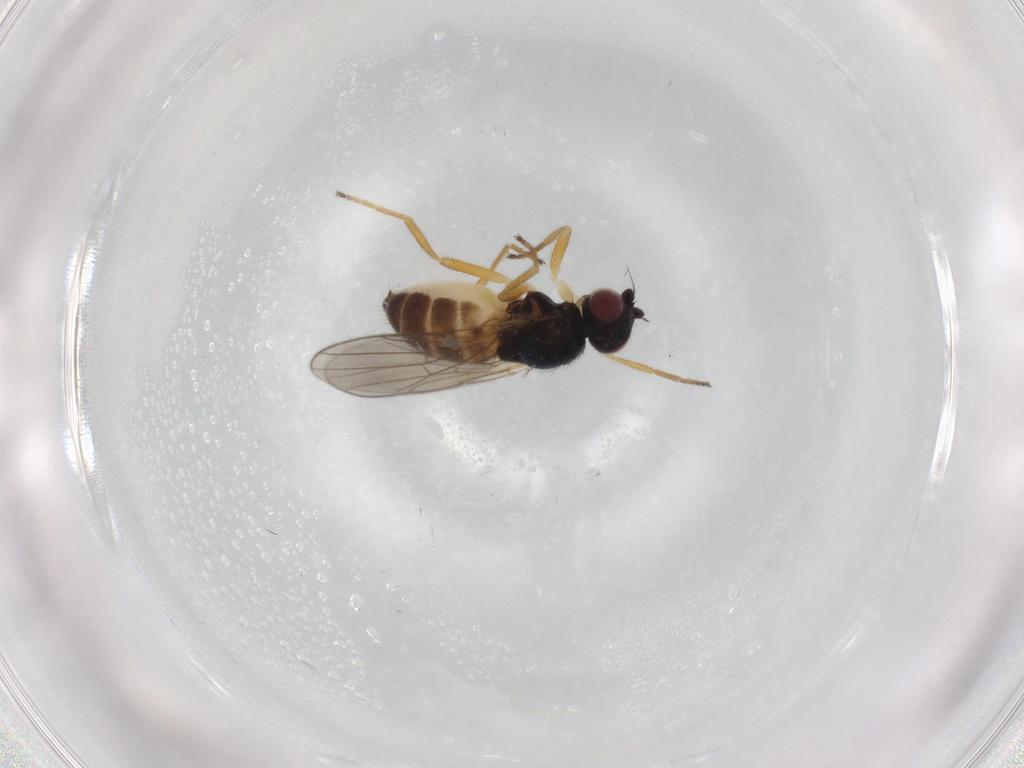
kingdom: Animalia
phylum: Arthropoda
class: Insecta
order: Diptera
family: Chloropidae
